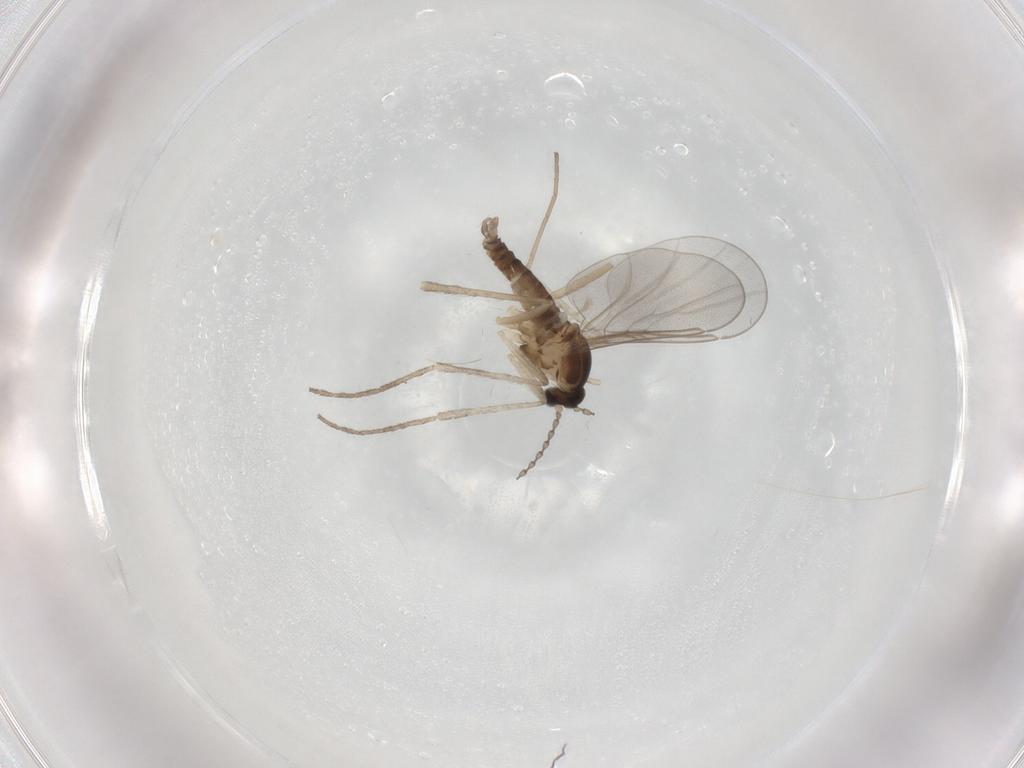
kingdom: Animalia
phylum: Arthropoda
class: Insecta
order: Diptera
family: Cecidomyiidae
